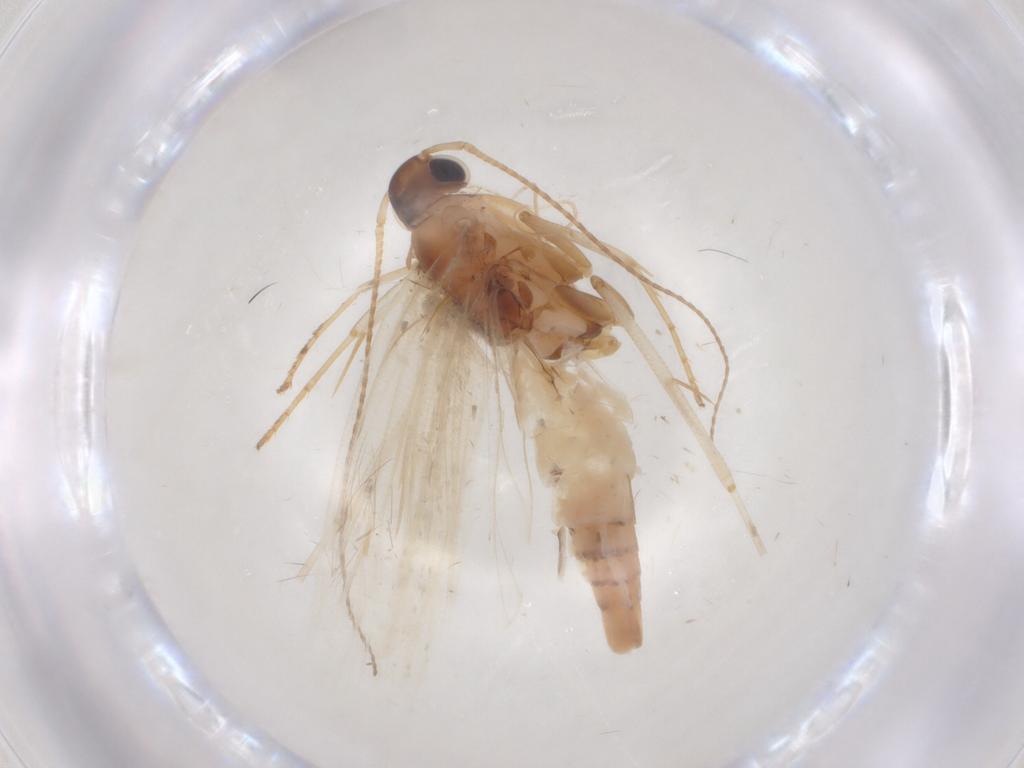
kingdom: Animalia
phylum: Arthropoda
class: Insecta
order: Lepidoptera
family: Gelechiidae
